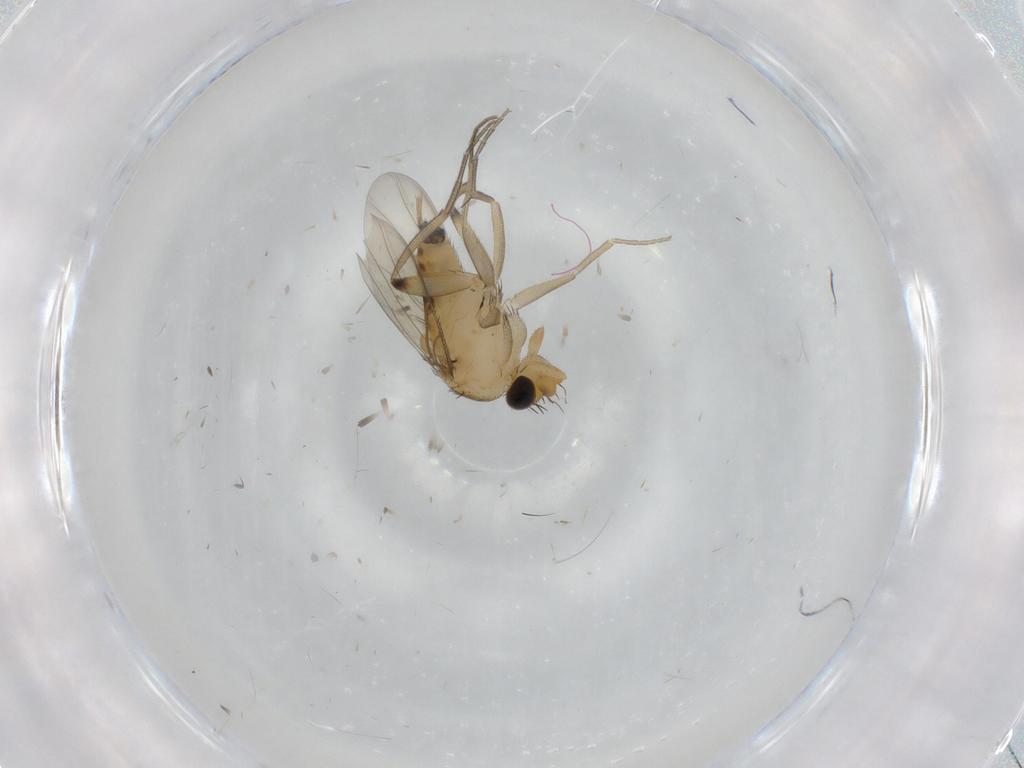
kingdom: Animalia
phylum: Arthropoda
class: Insecta
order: Diptera
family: Phoridae
